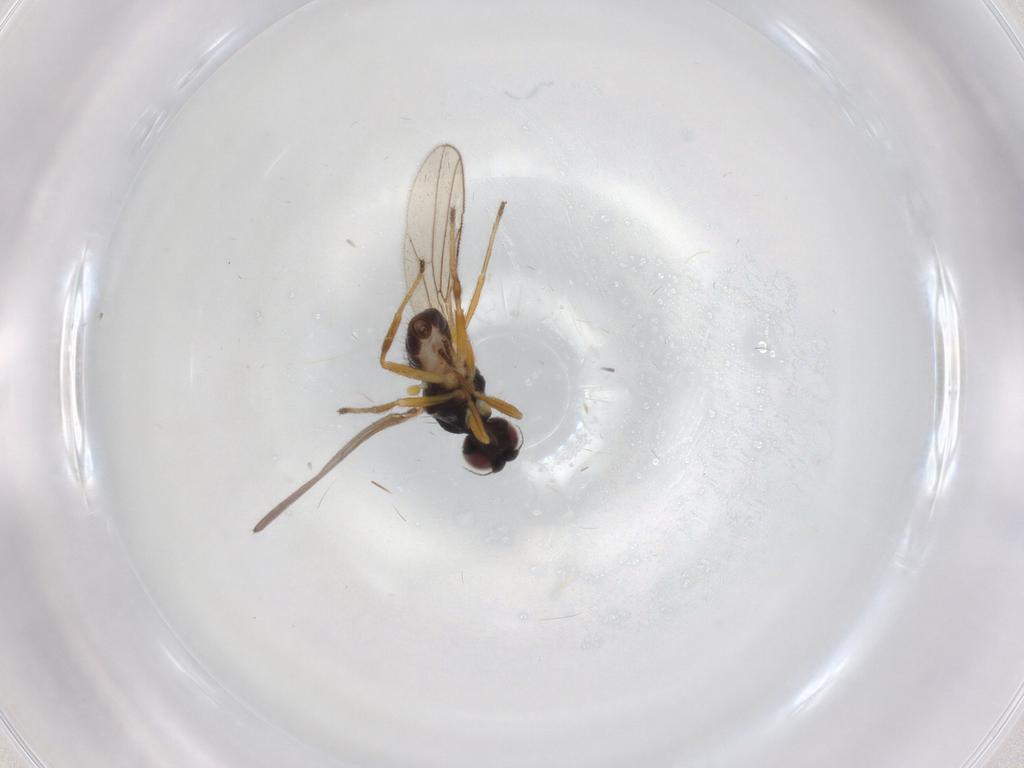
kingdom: Animalia
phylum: Arthropoda
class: Insecta
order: Diptera
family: Chloropidae
